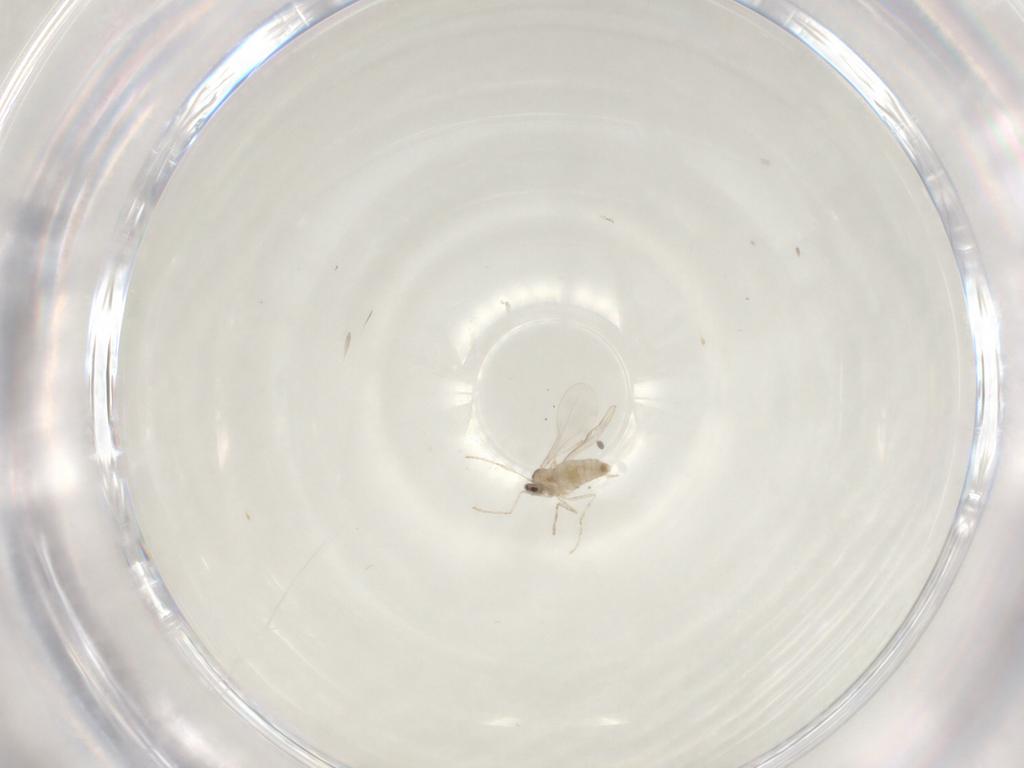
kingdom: Animalia
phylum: Arthropoda
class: Insecta
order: Diptera
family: Cecidomyiidae
